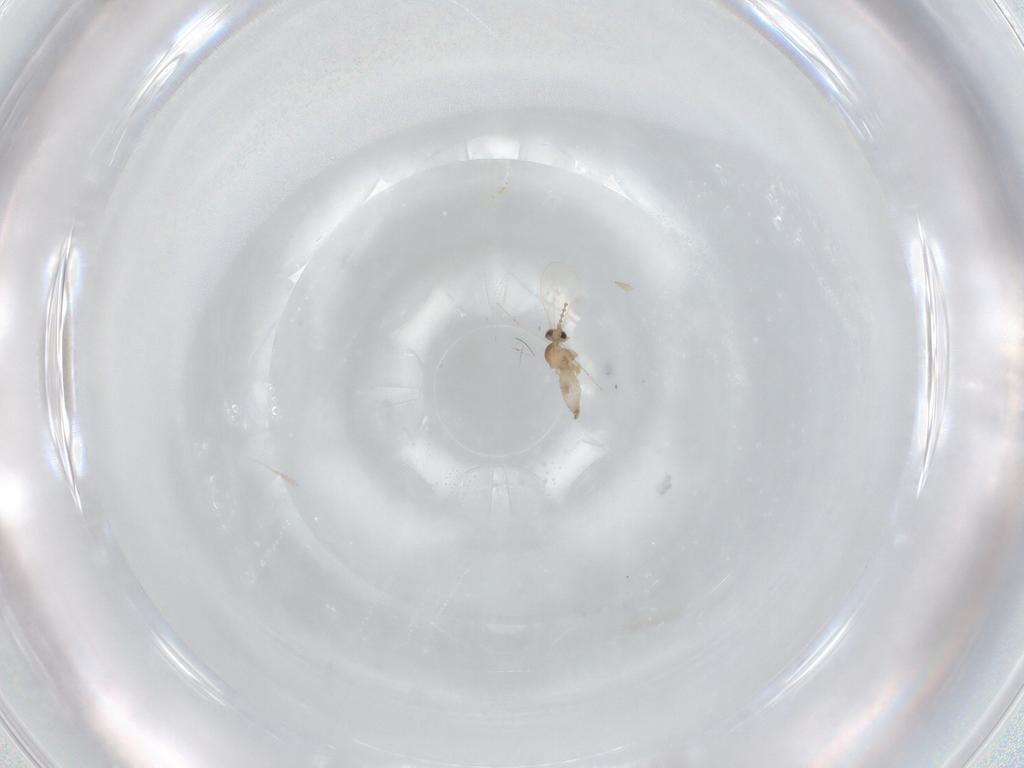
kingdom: Animalia
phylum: Arthropoda
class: Insecta
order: Diptera
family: Cecidomyiidae
